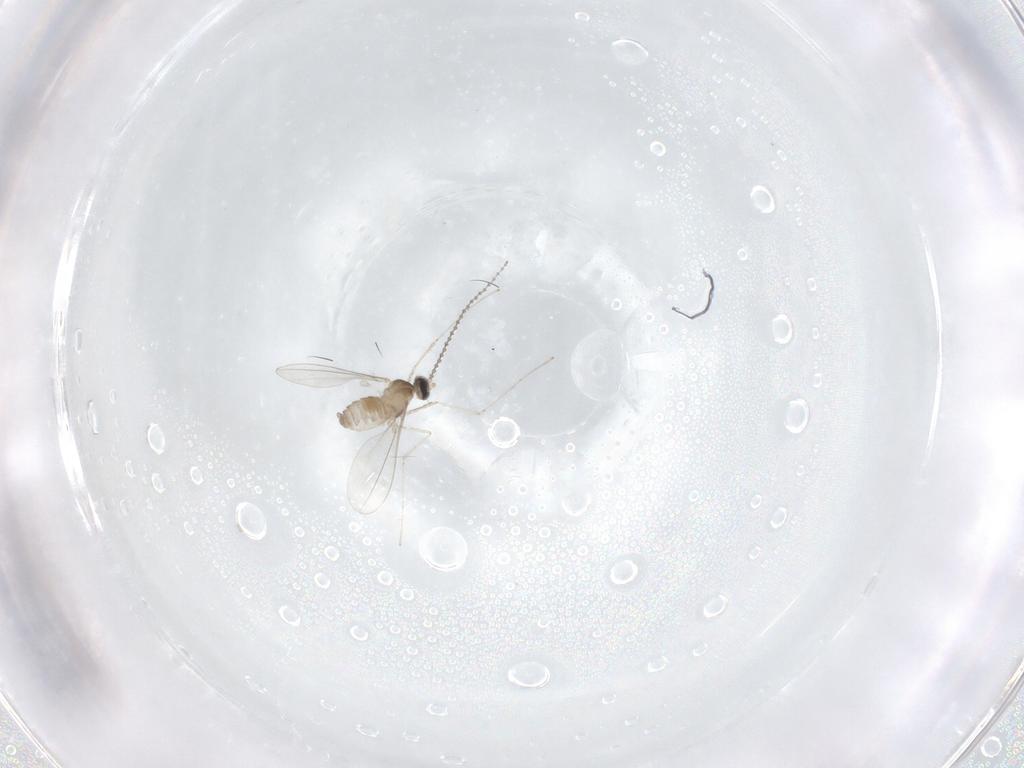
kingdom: Animalia
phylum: Arthropoda
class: Insecta
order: Diptera
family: Cecidomyiidae
